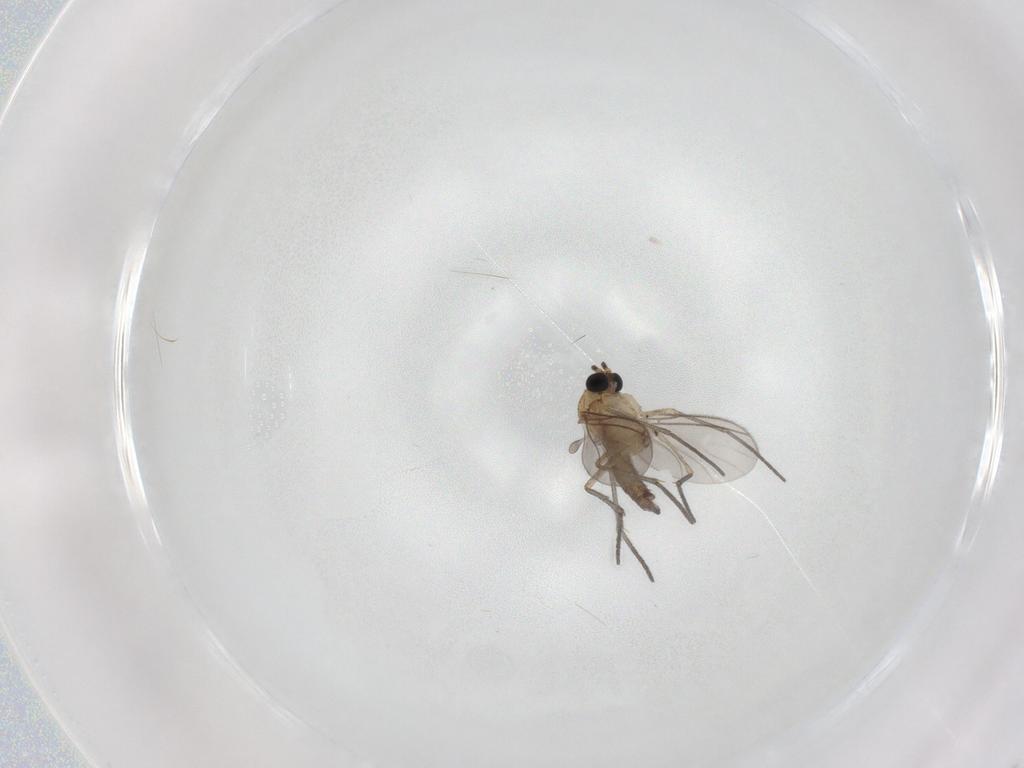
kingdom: Animalia
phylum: Arthropoda
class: Insecta
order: Diptera
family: Sciaridae
